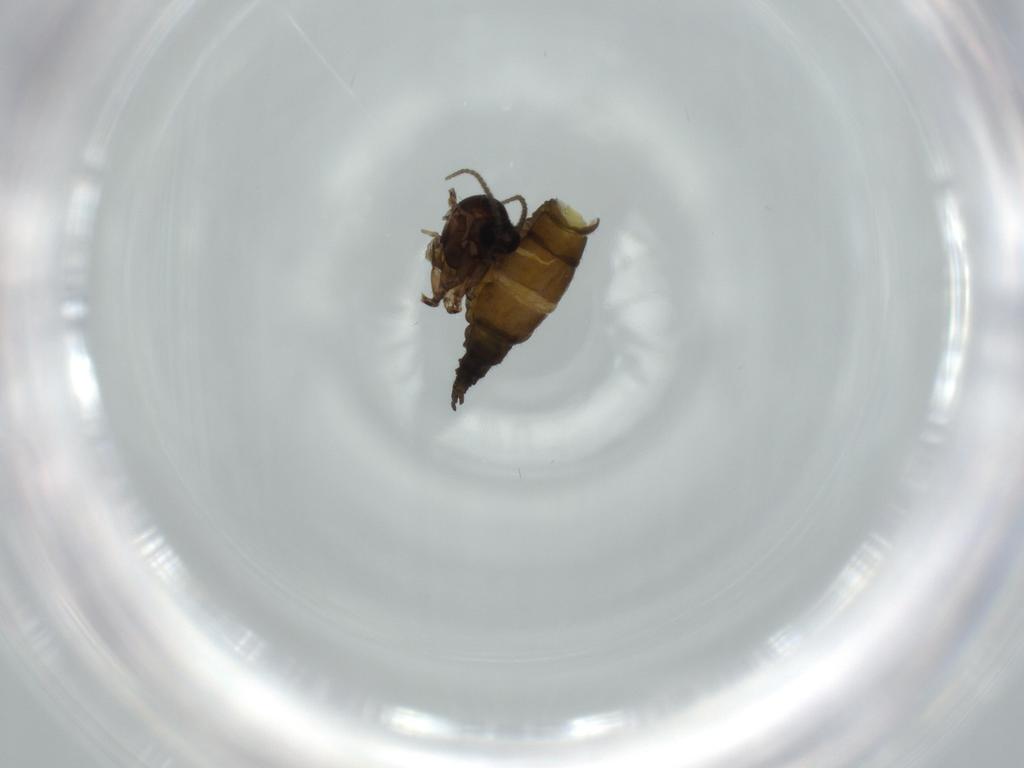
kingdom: Animalia
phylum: Arthropoda
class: Insecta
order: Diptera
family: Sciaridae
